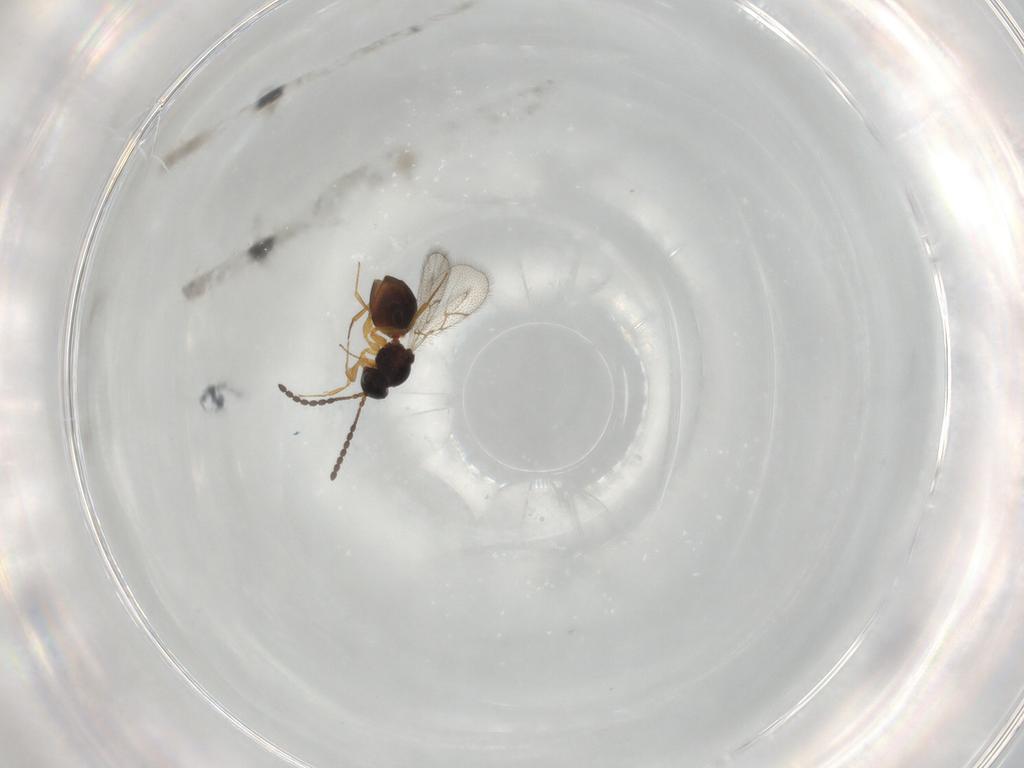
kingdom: Animalia
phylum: Arthropoda
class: Insecta
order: Hymenoptera
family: Figitidae
